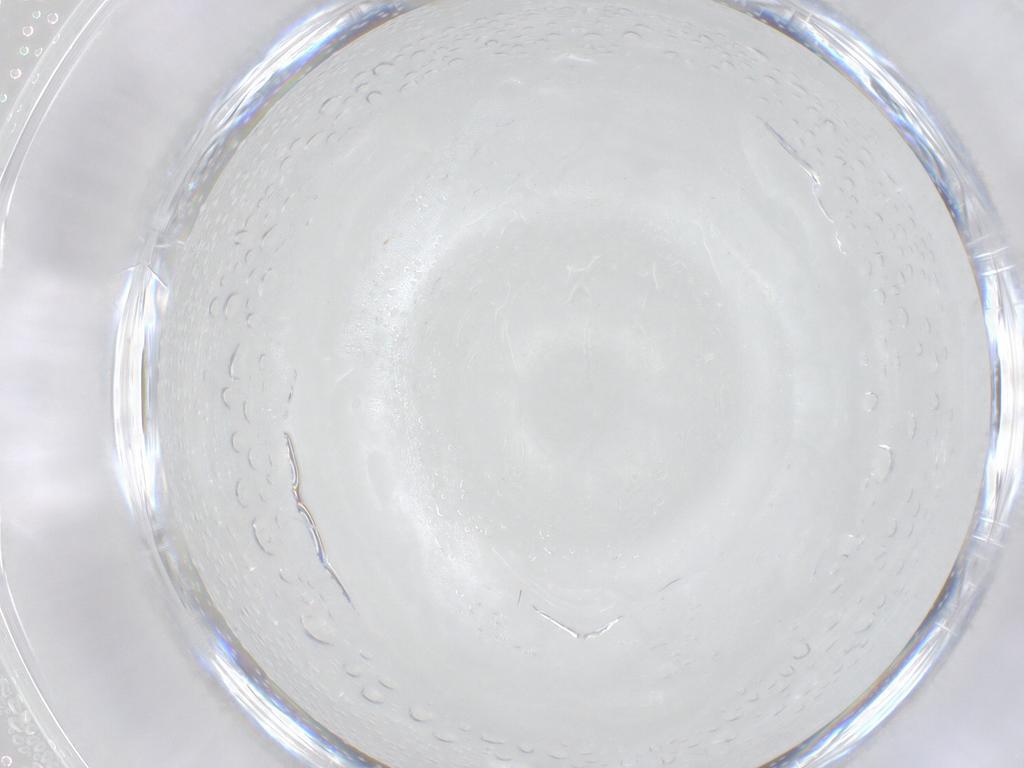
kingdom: Animalia
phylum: Arthropoda
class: Insecta
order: Diptera
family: Cecidomyiidae
